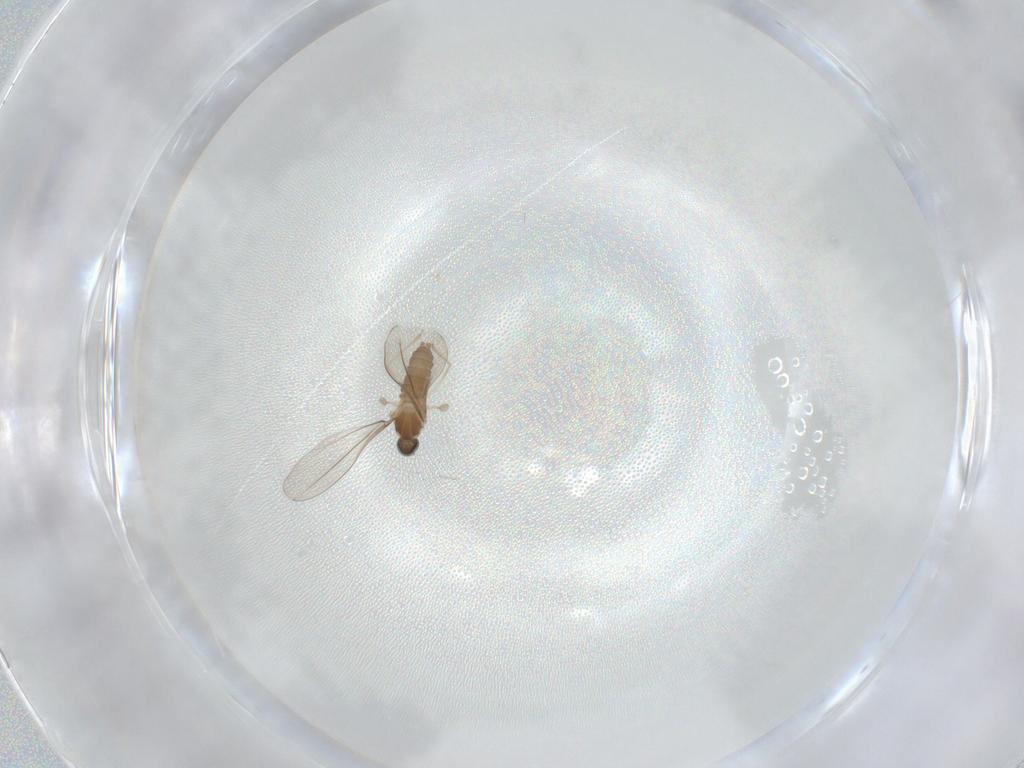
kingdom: Animalia
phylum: Arthropoda
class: Insecta
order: Diptera
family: Cecidomyiidae
